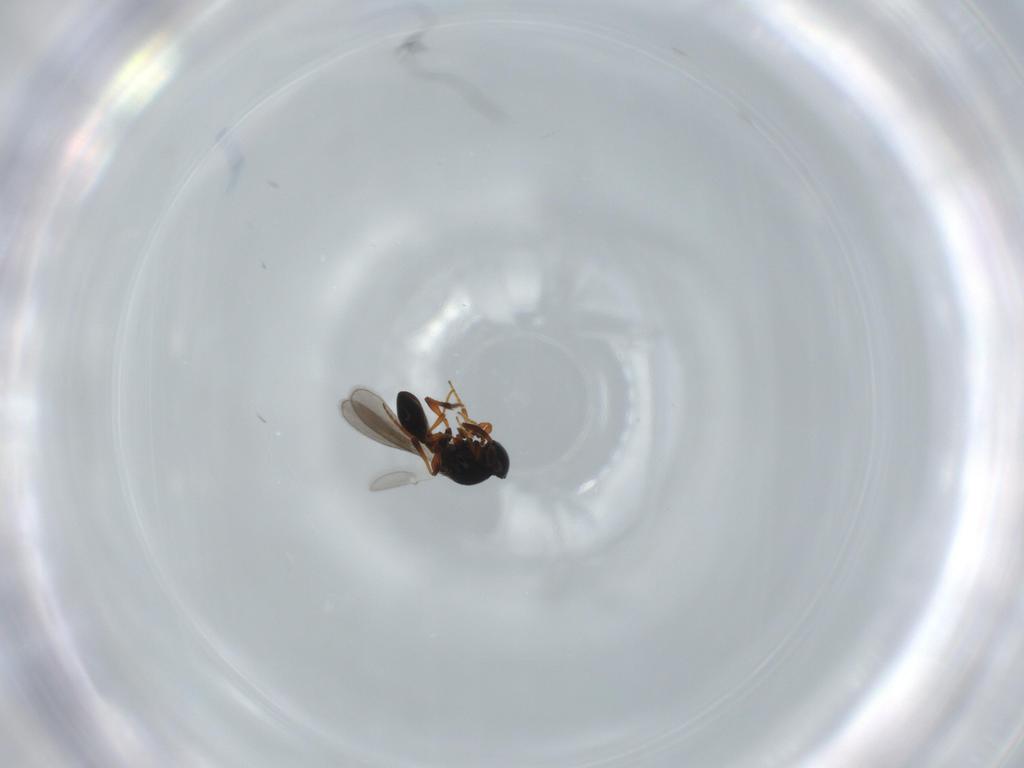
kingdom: Animalia
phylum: Arthropoda
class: Insecta
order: Hymenoptera
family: Platygastridae
